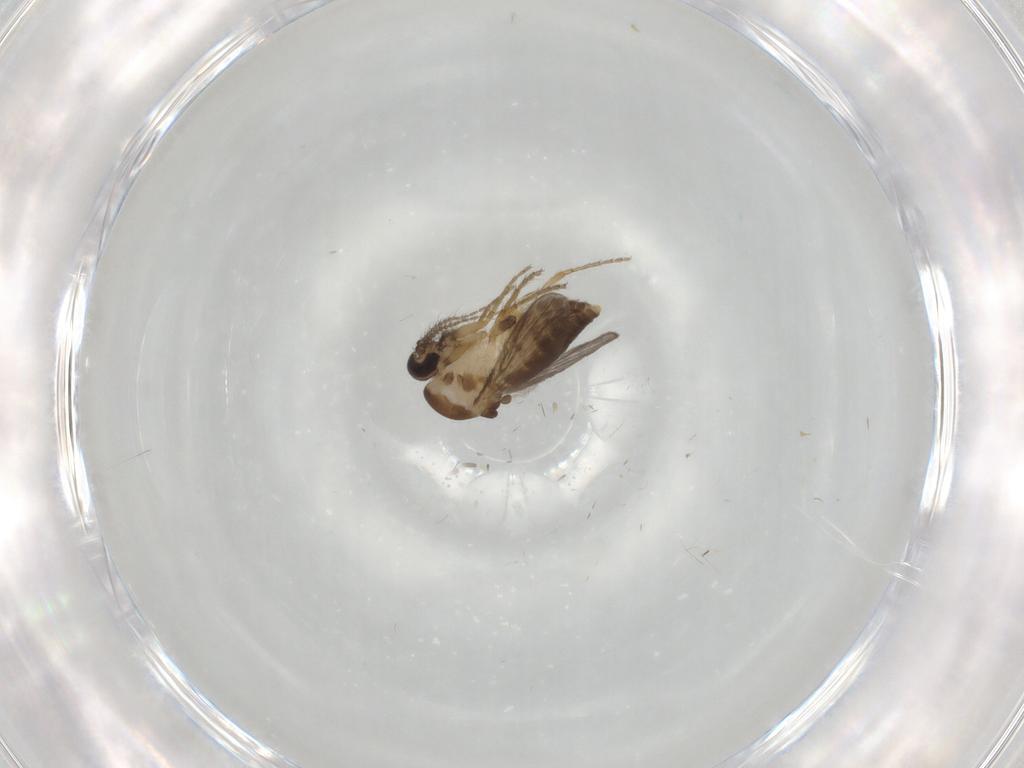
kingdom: Animalia
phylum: Arthropoda
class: Insecta
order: Diptera
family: Ceratopogonidae
